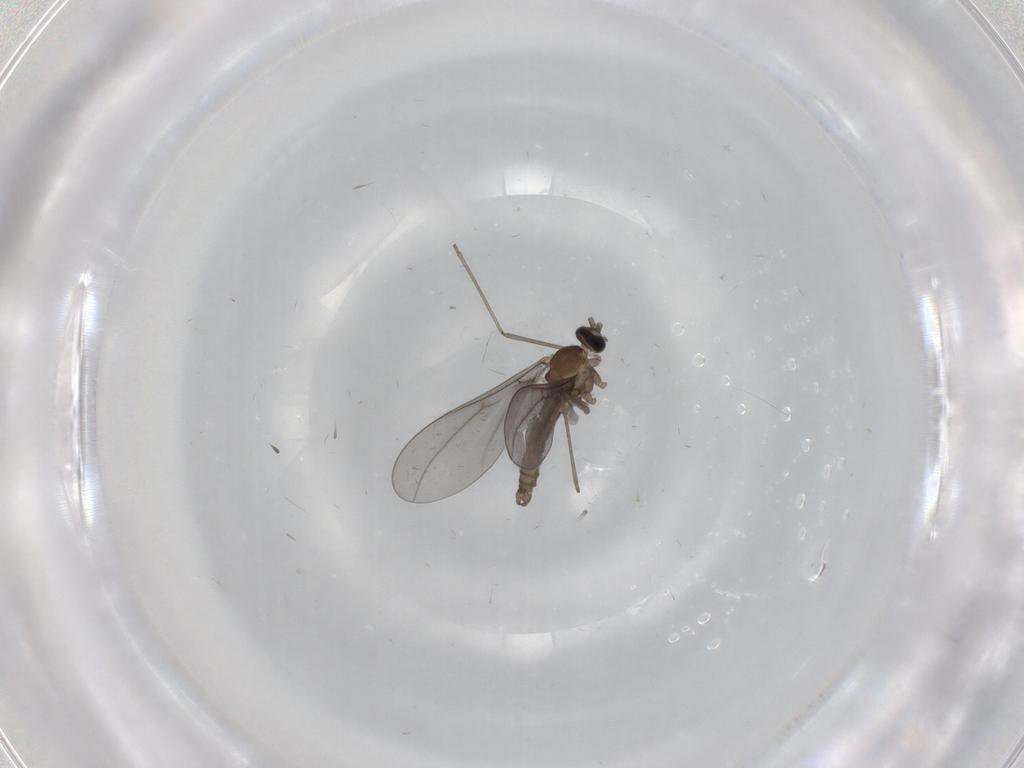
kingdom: Animalia
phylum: Arthropoda
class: Insecta
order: Diptera
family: Cecidomyiidae
